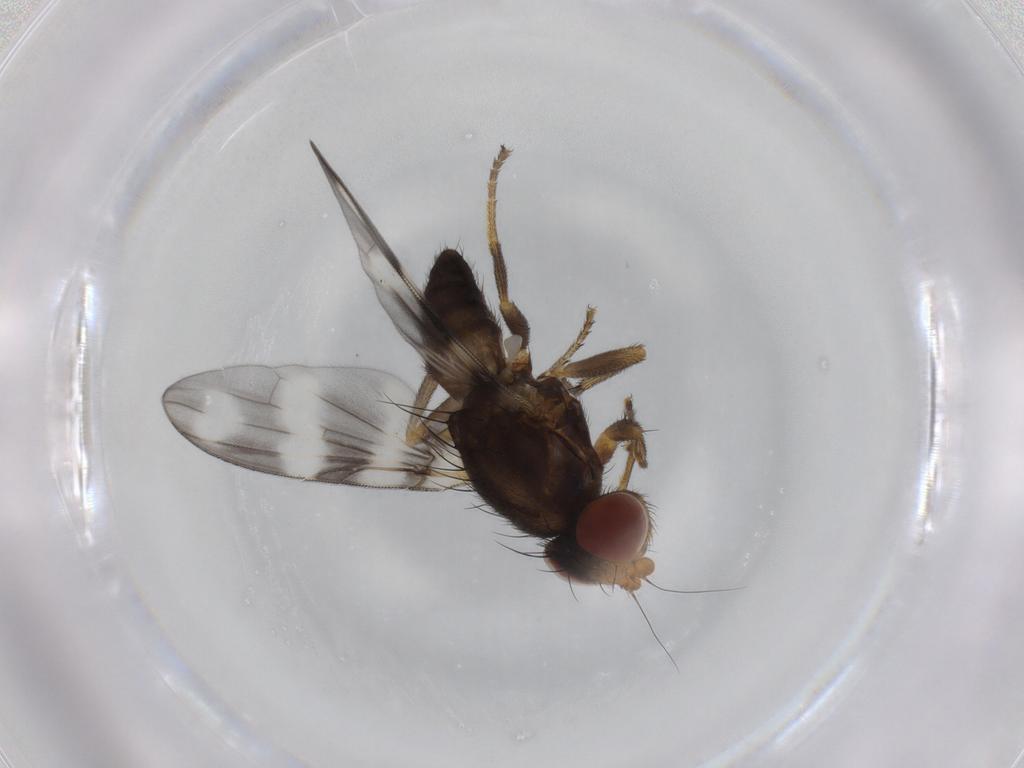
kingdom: Animalia
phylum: Arthropoda
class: Insecta
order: Diptera
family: Ulidiidae
